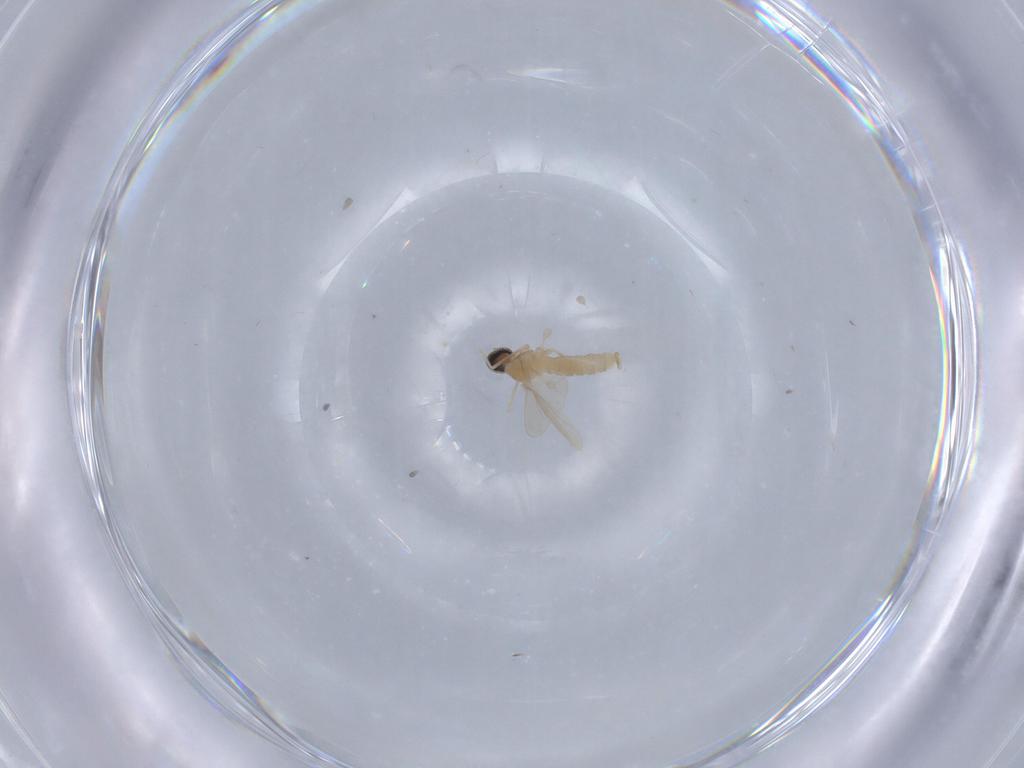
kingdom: Animalia
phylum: Arthropoda
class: Insecta
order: Diptera
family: Cecidomyiidae
